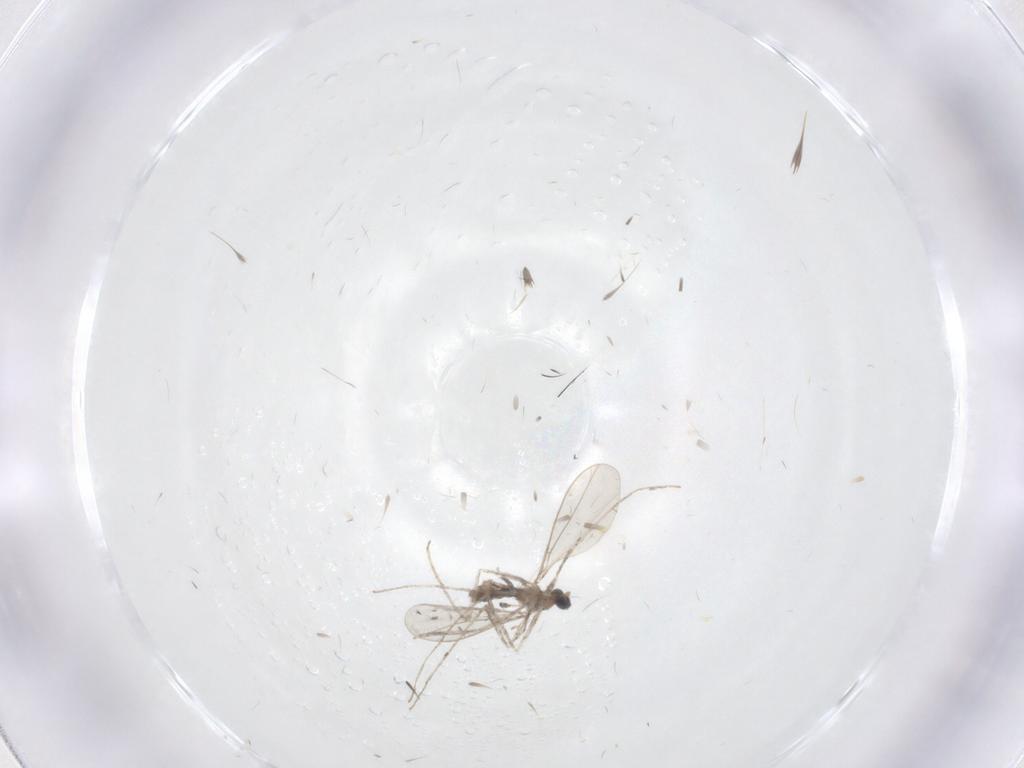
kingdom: Animalia
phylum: Arthropoda
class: Insecta
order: Diptera
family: Cecidomyiidae
